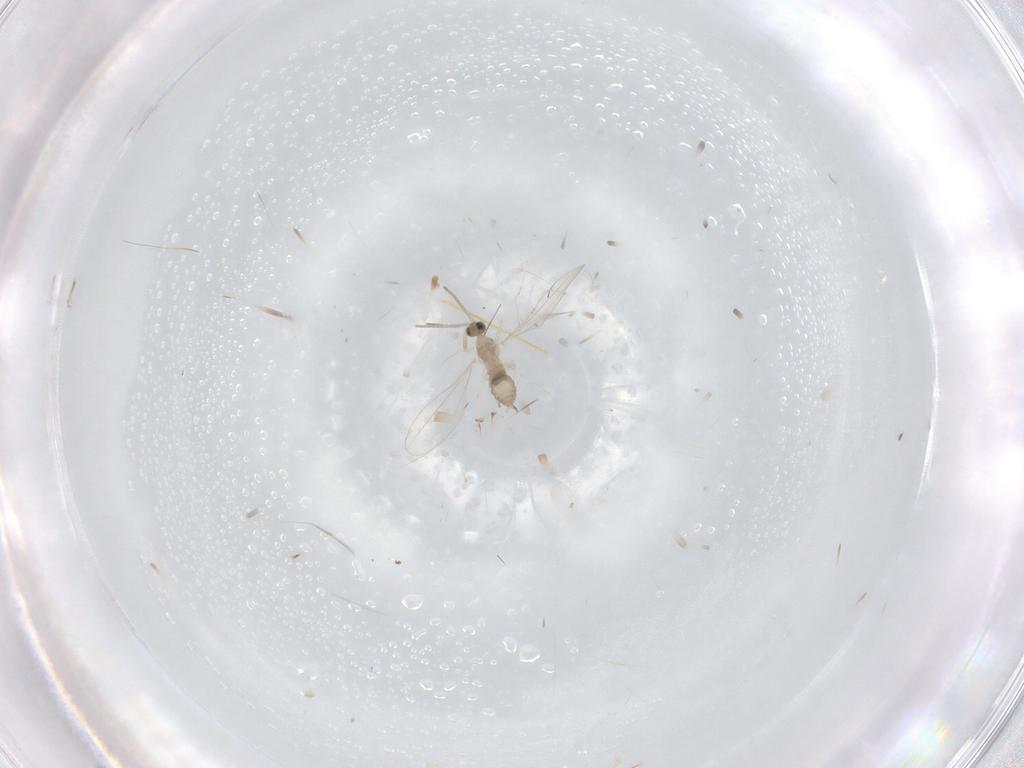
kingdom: Animalia
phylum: Arthropoda
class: Insecta
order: Diptera
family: Cecidomyiidae
